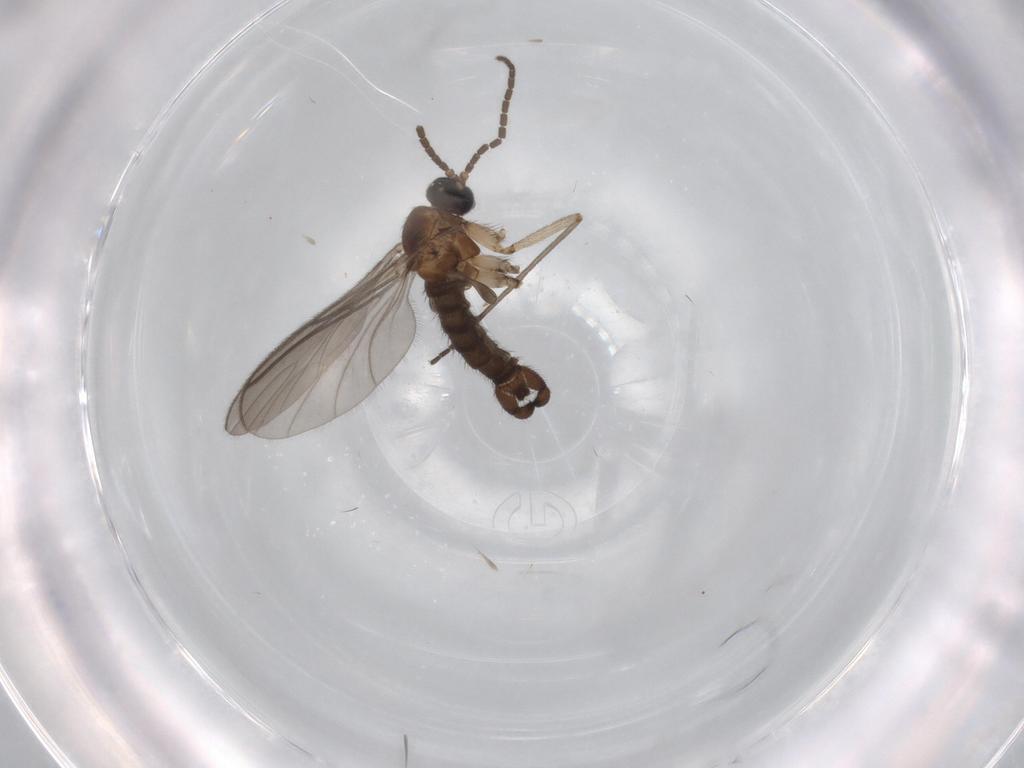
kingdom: Animalia
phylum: Arthropoda
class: Insecta
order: Diptera
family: Sciaridae
